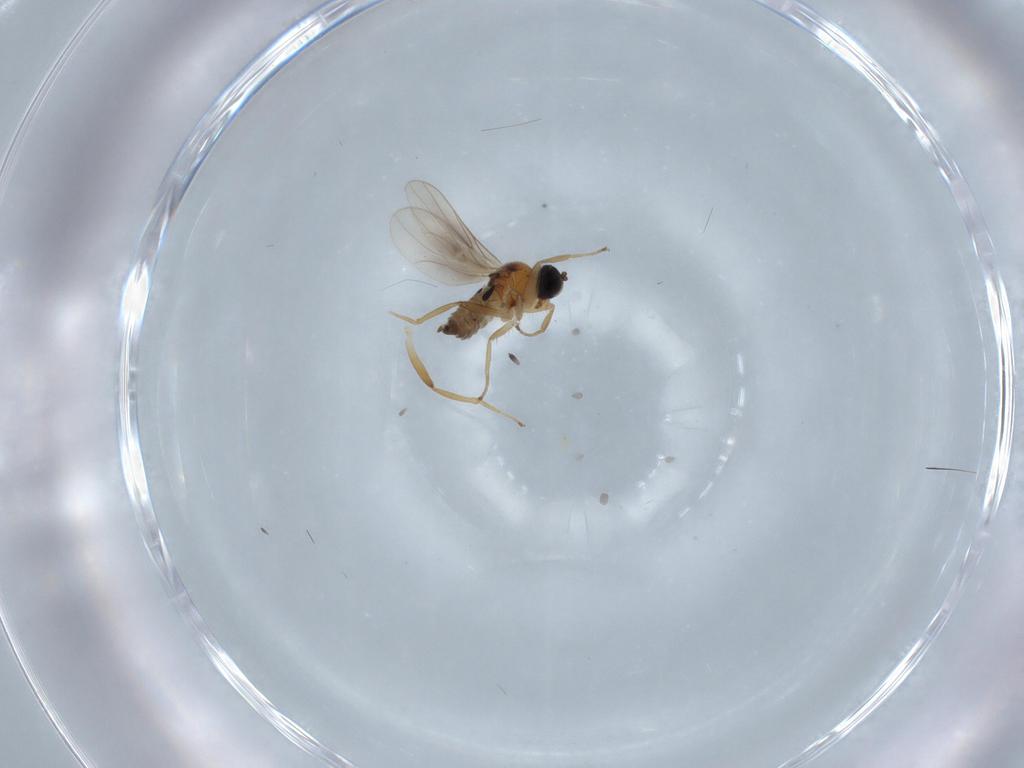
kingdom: Animalia
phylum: Arthropoda
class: Insecta
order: Diptera
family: Hybotidae
